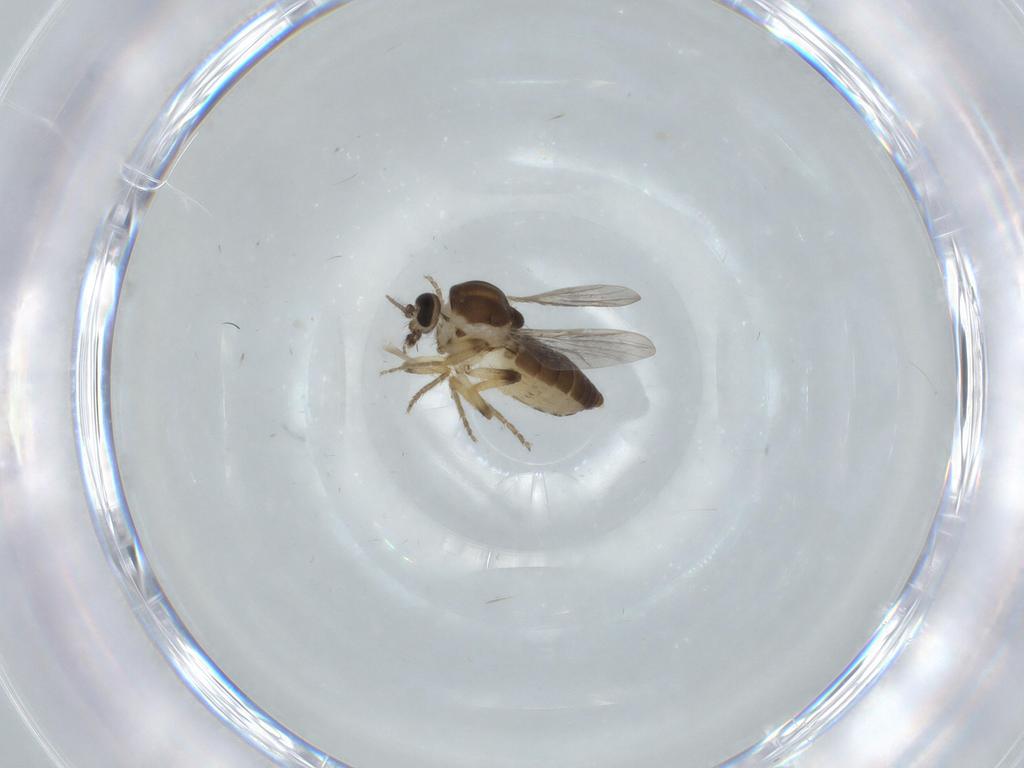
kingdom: Animalia
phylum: Arthropoda
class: Insecta
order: Diptera
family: Ceratopogonidae
